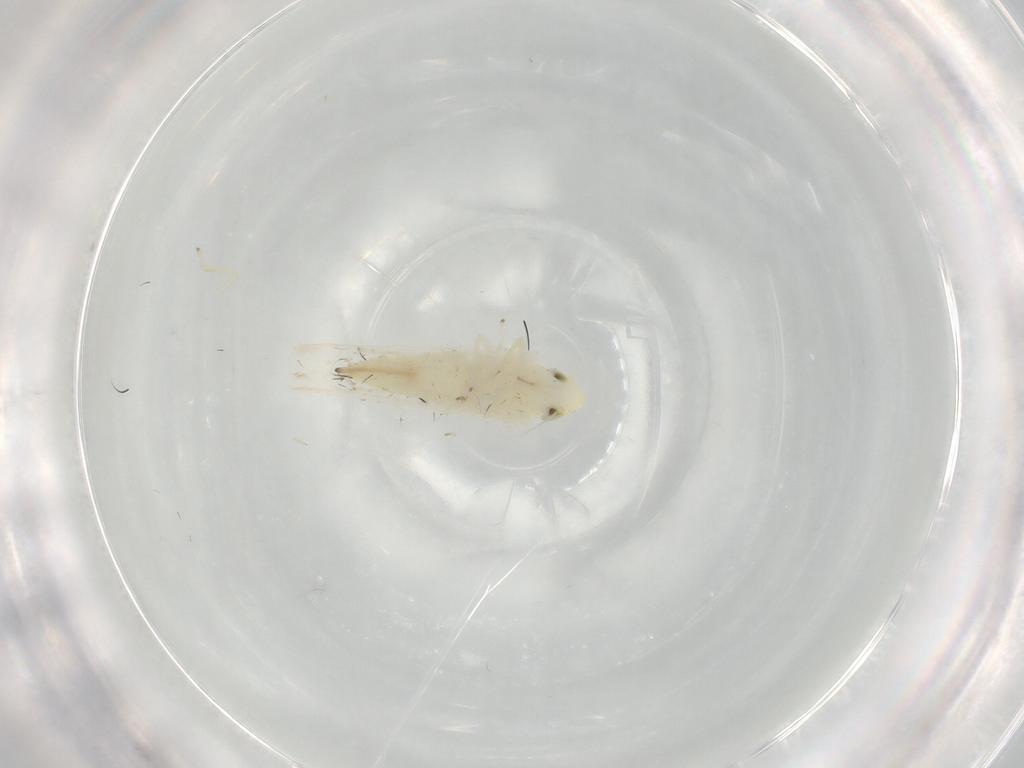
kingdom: Animalia
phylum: Arthropoda
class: Insecta
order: Hemiptera
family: Cicadellidae
